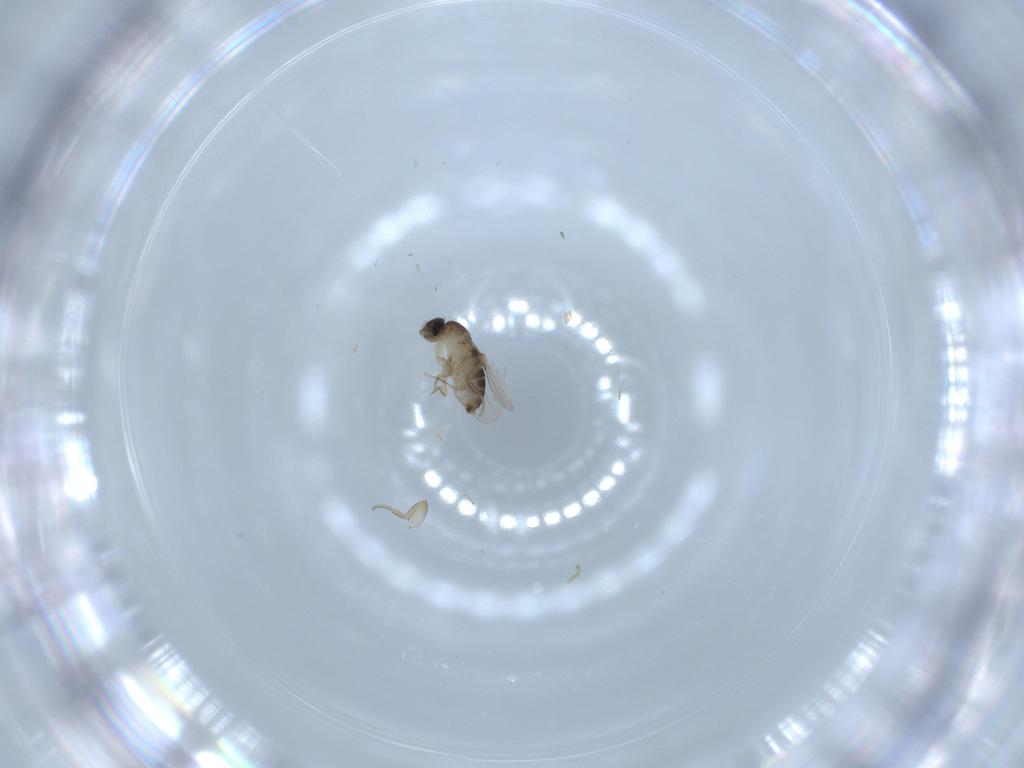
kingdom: Animalia
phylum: Arthropoda
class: Insecta
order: Diptera
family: Phoridae
